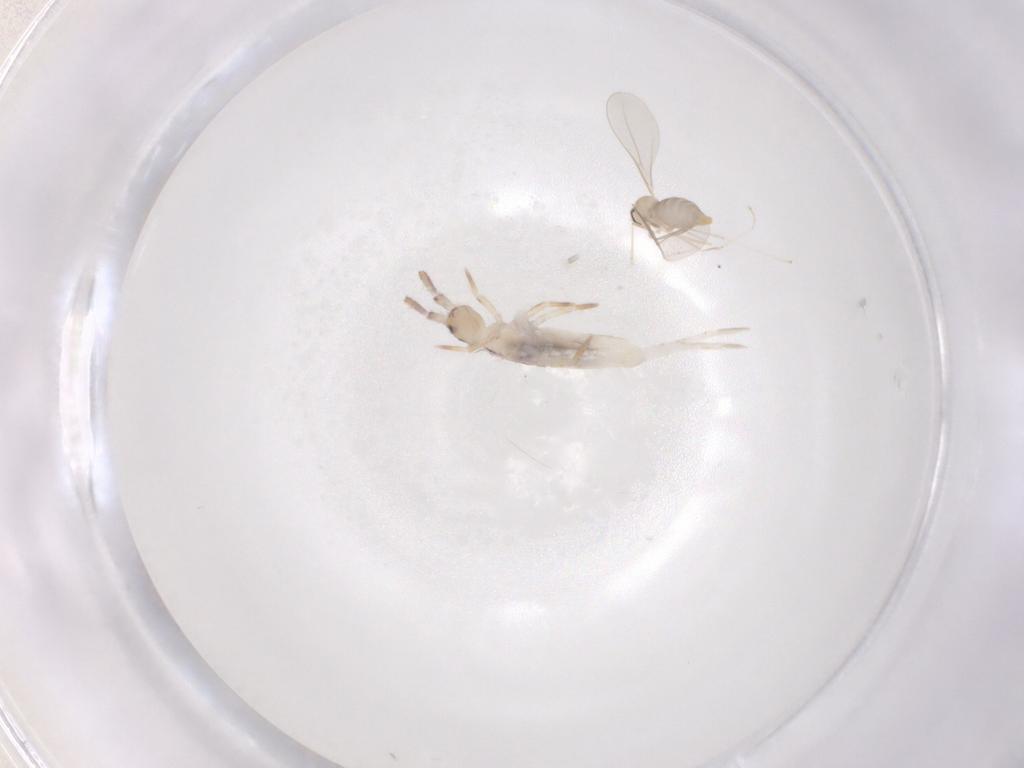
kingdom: Animalia
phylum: Arthropoda
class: Insecta
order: Diptera
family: Cecidomyiidae
